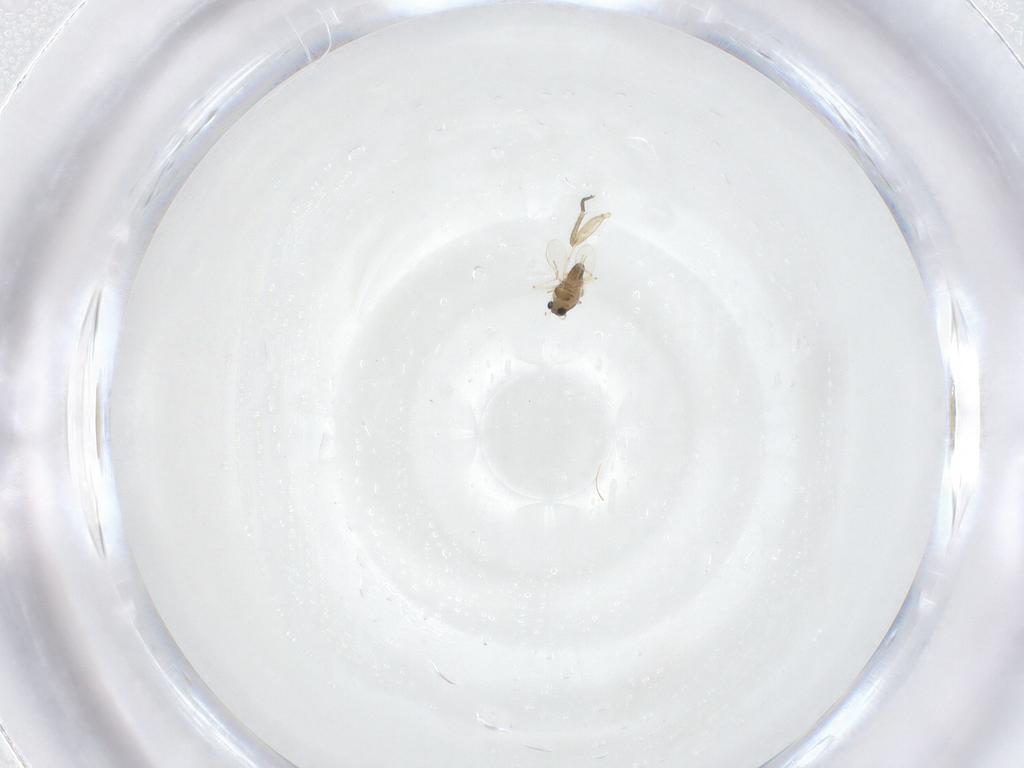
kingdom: Animalia
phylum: Arthropoda
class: Insecta
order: Diptera
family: Chironomidae
